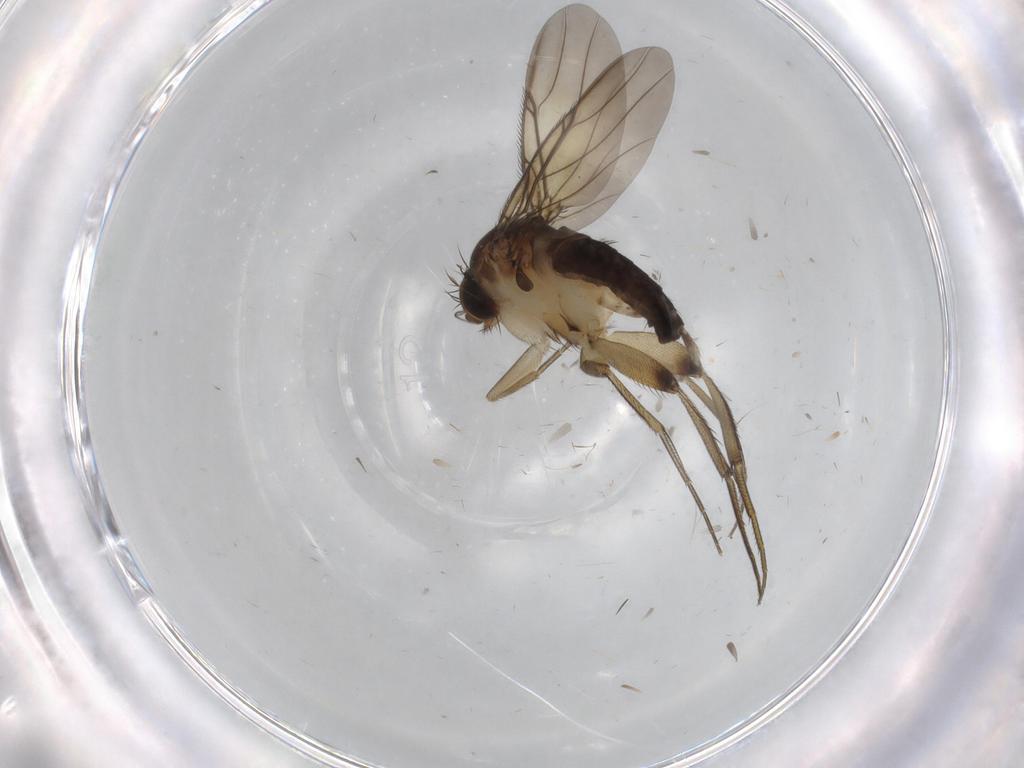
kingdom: Animalia
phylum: Arthropoda
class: Insecta
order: Diptera
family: Sciaridae
